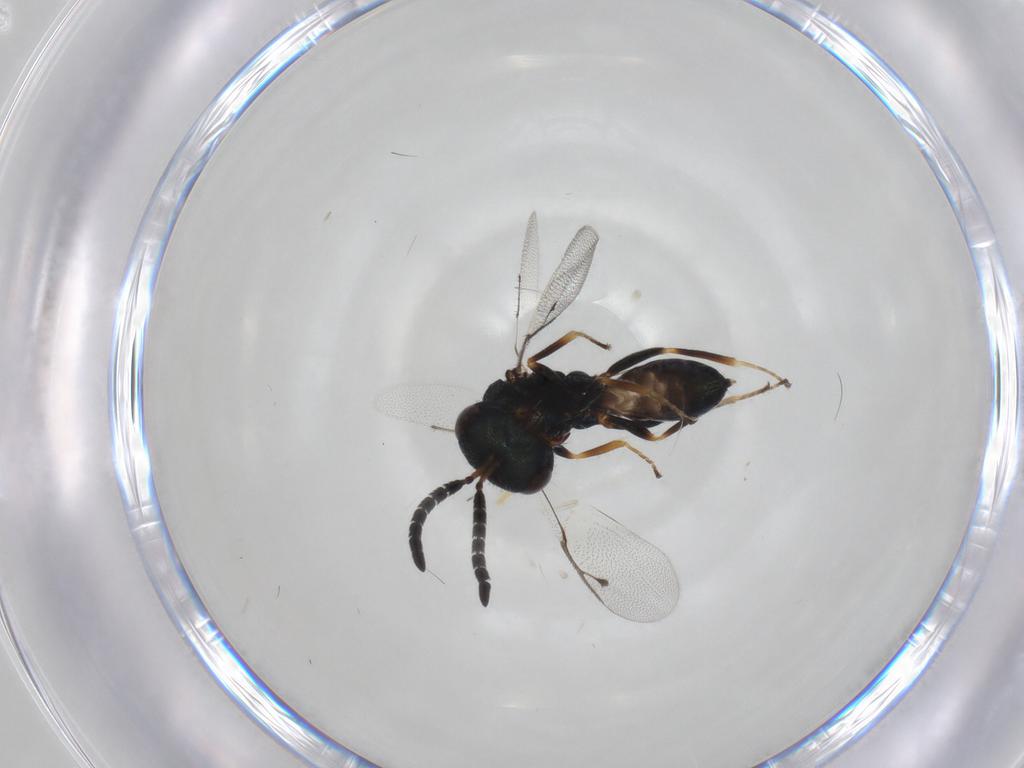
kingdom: Animalia
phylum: Arthropoda
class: Insecta
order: Hymenoptera
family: Pteromalidae
